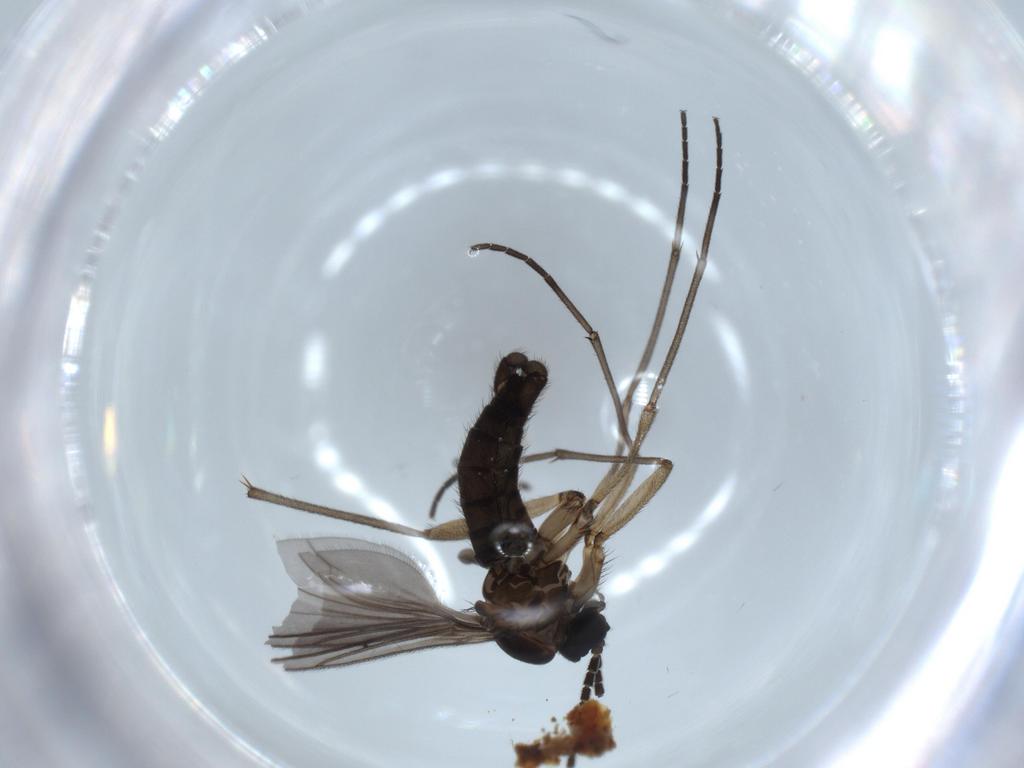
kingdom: Animalia
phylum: Arthropoda
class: Insecta
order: Diptera
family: Sciaridae
